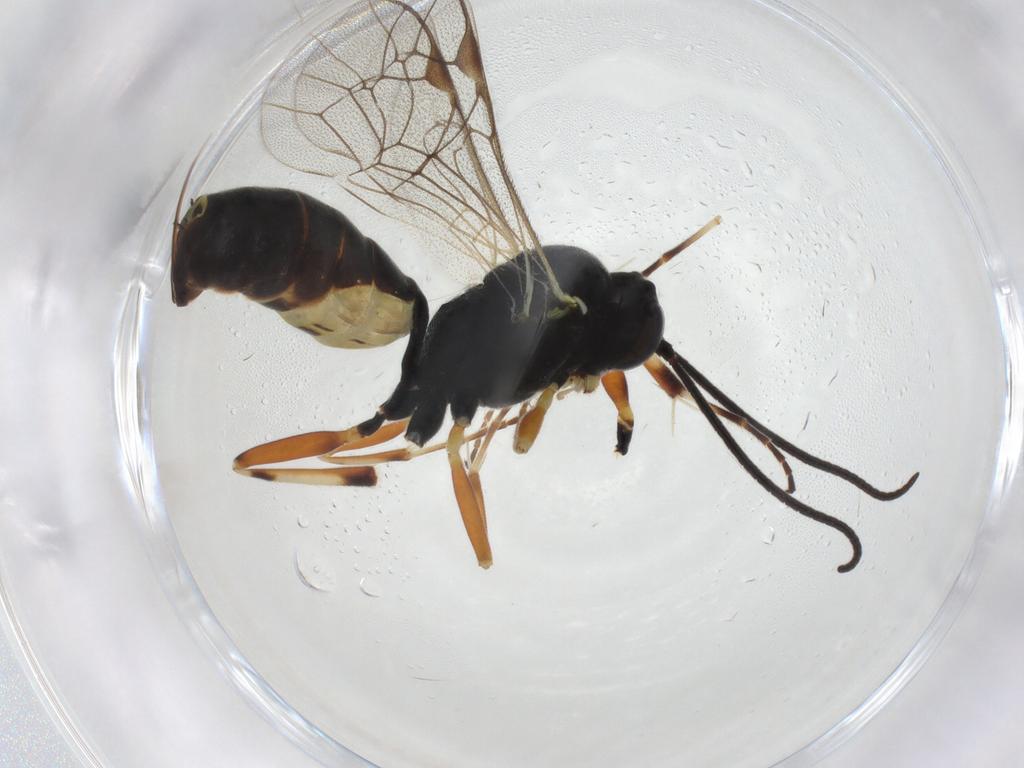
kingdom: Animalia
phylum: Arthropoda
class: Insecta
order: Hymenoptera
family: Ichneumonidae
